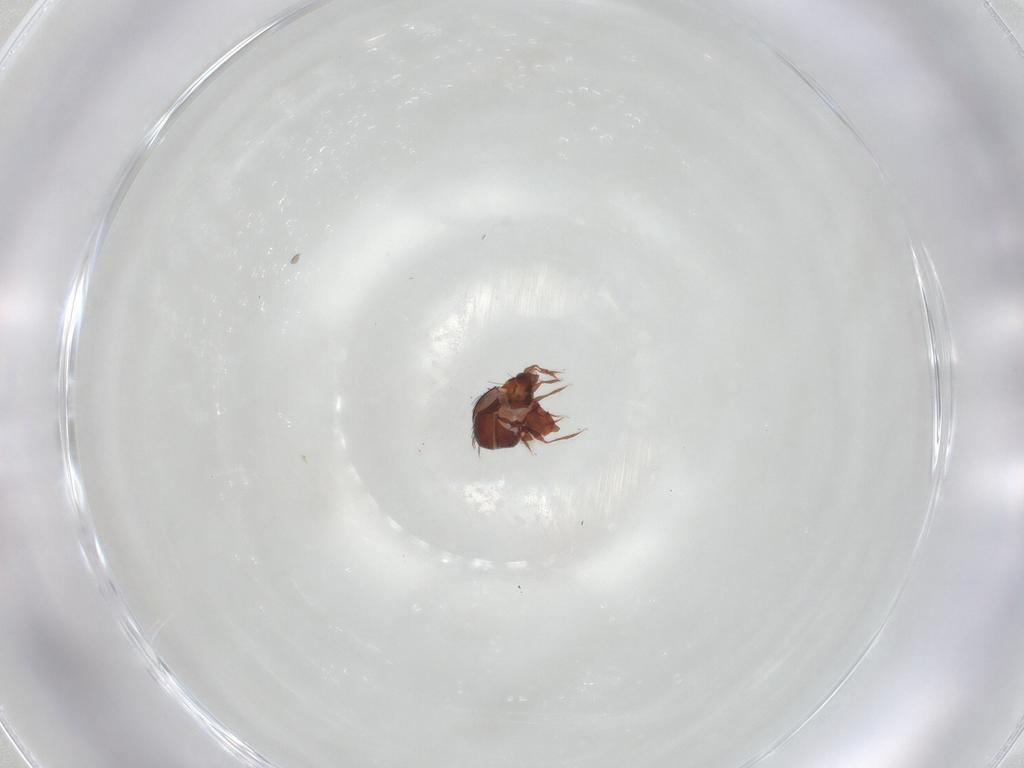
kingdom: Animalia
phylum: Arthropoda
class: Arachnida
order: Sarcoptiformes
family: Caloppiidae
